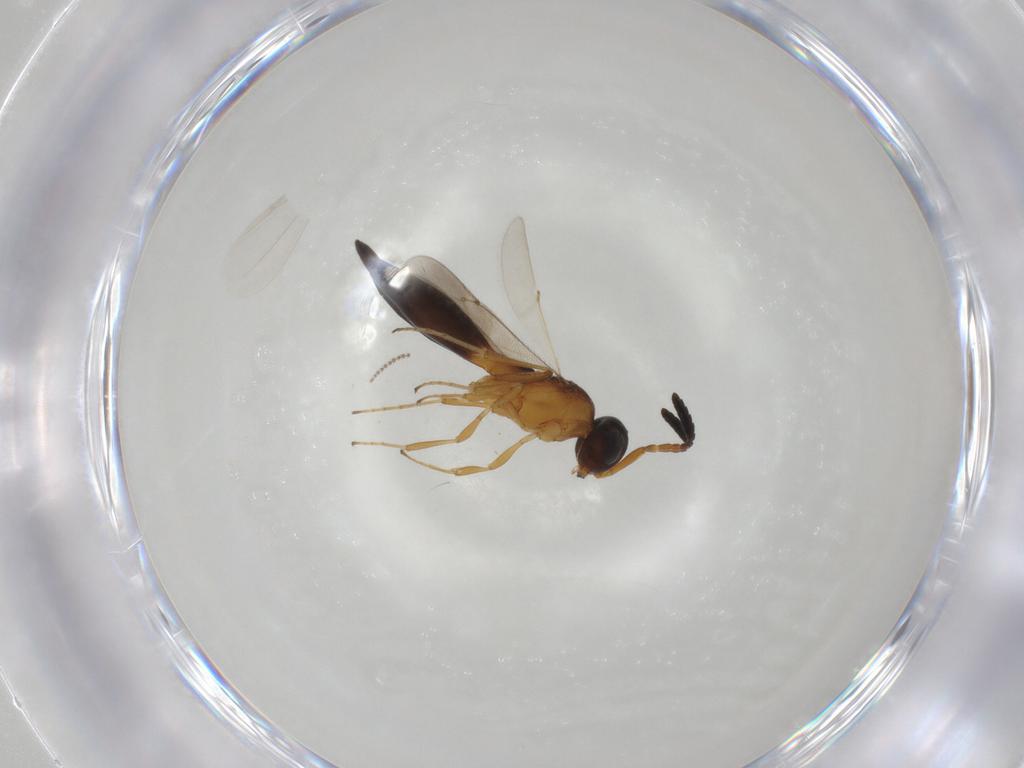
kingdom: Animalia
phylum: Arthropoda
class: Insecta
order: Hymenoptera
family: Scelionidae
